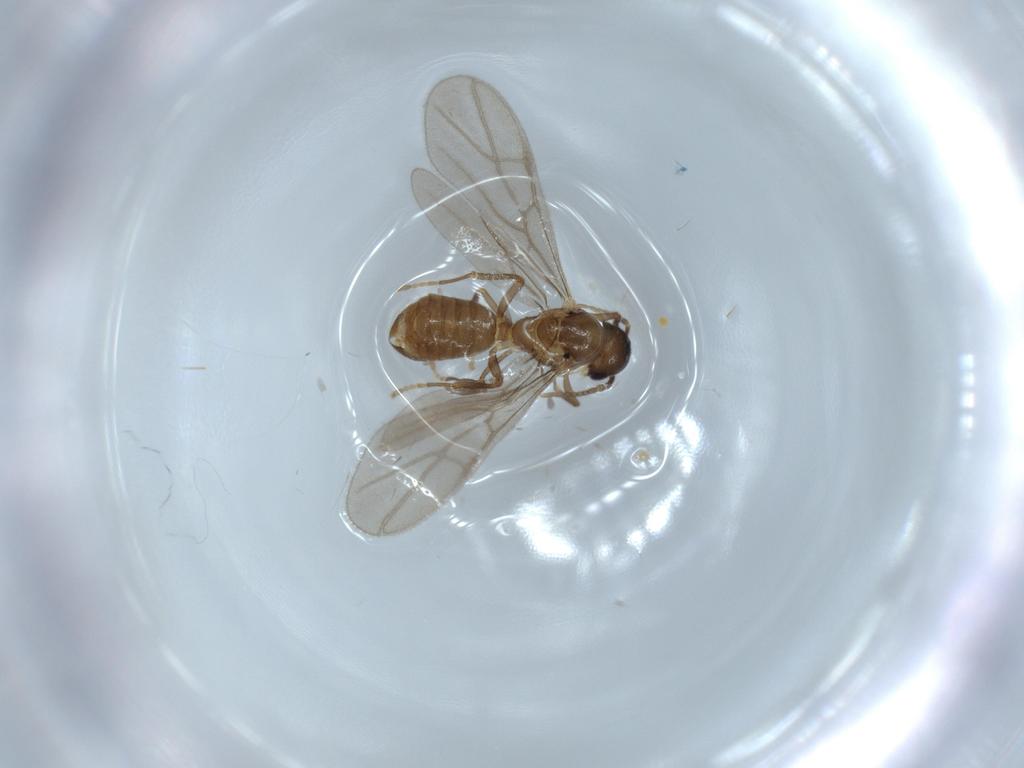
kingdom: Animalia
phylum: Arthropoda
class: Insecta
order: Hymenoptera
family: Formicidae
